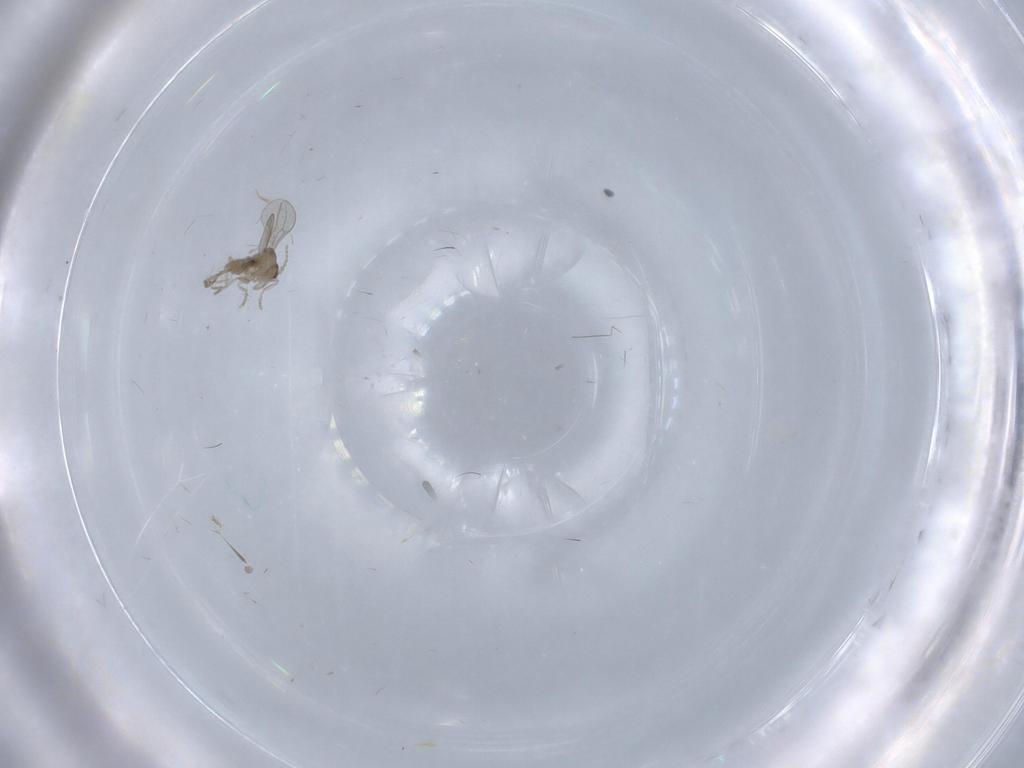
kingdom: Animalia
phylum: Arthropoda
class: Insecta
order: Diptera
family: Cecidomyiidae
